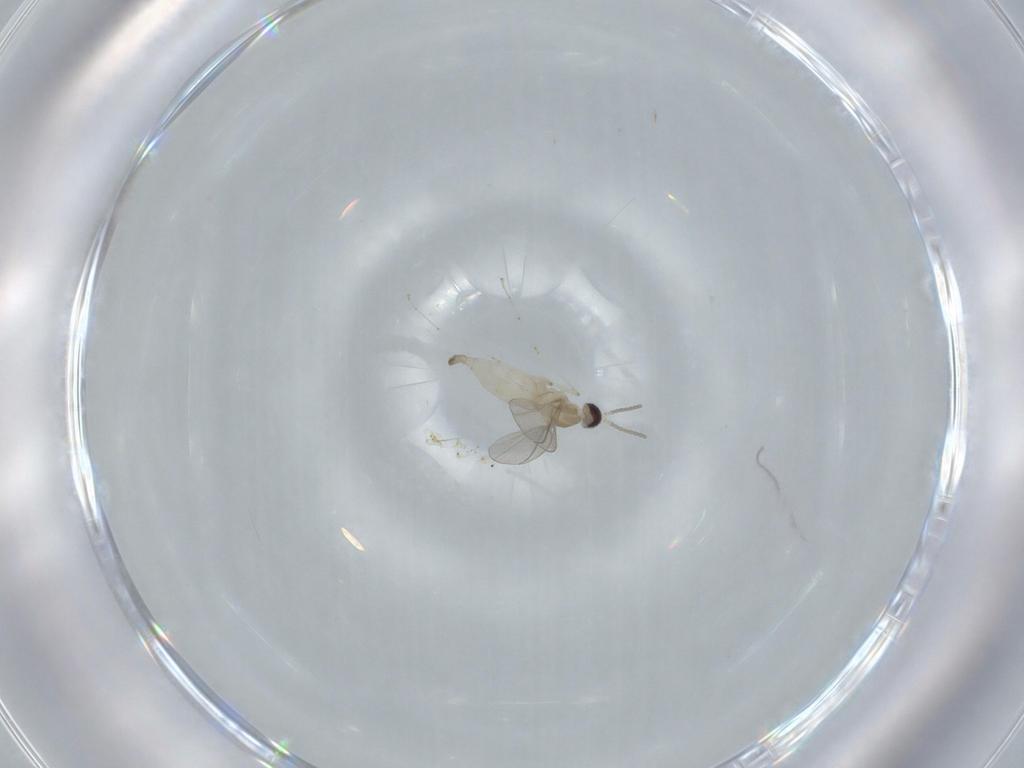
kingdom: Animalia
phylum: Arthropoda
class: Insecta
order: Diptera
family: Cecidomyiidae
